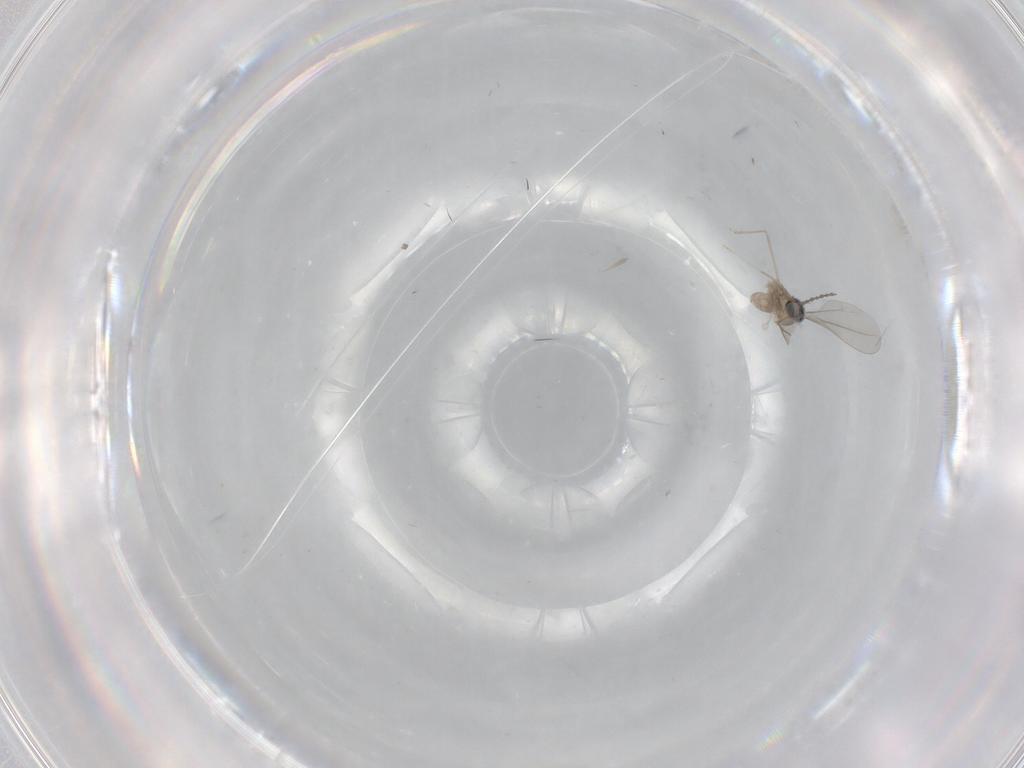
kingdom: Animalia
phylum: Arthropoda
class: Insecta
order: Diptera
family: Cecidomyiidae
